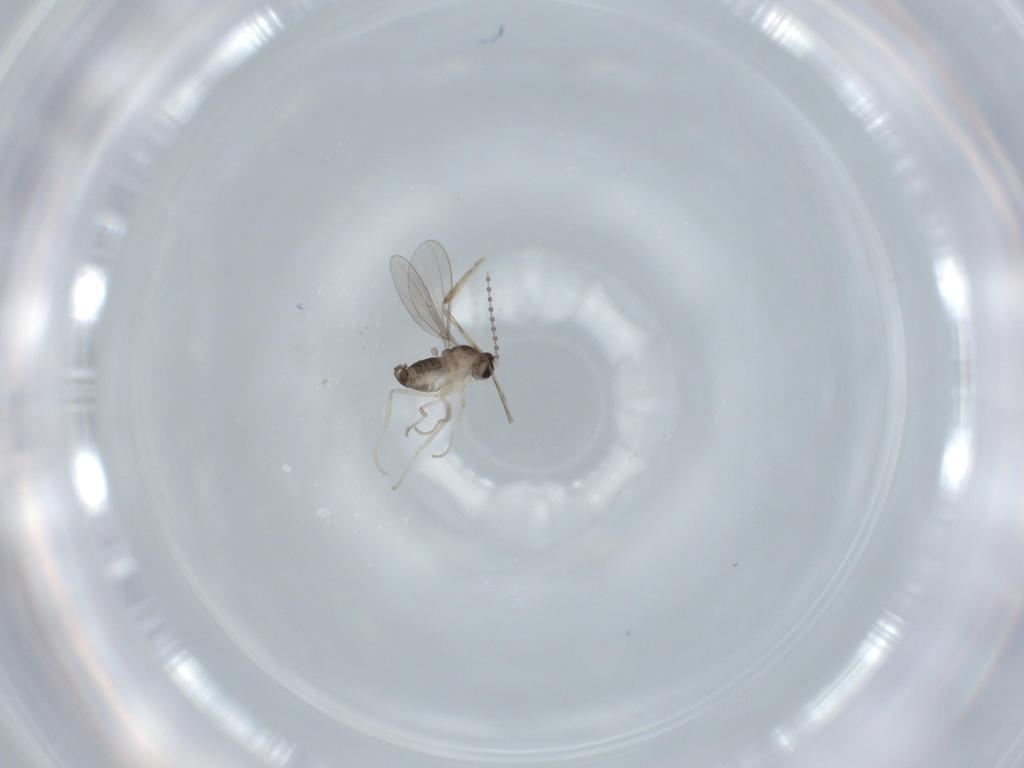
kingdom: Animalia
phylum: Arthropoda
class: Insecta
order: Diptera
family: Cecidomyiidae
